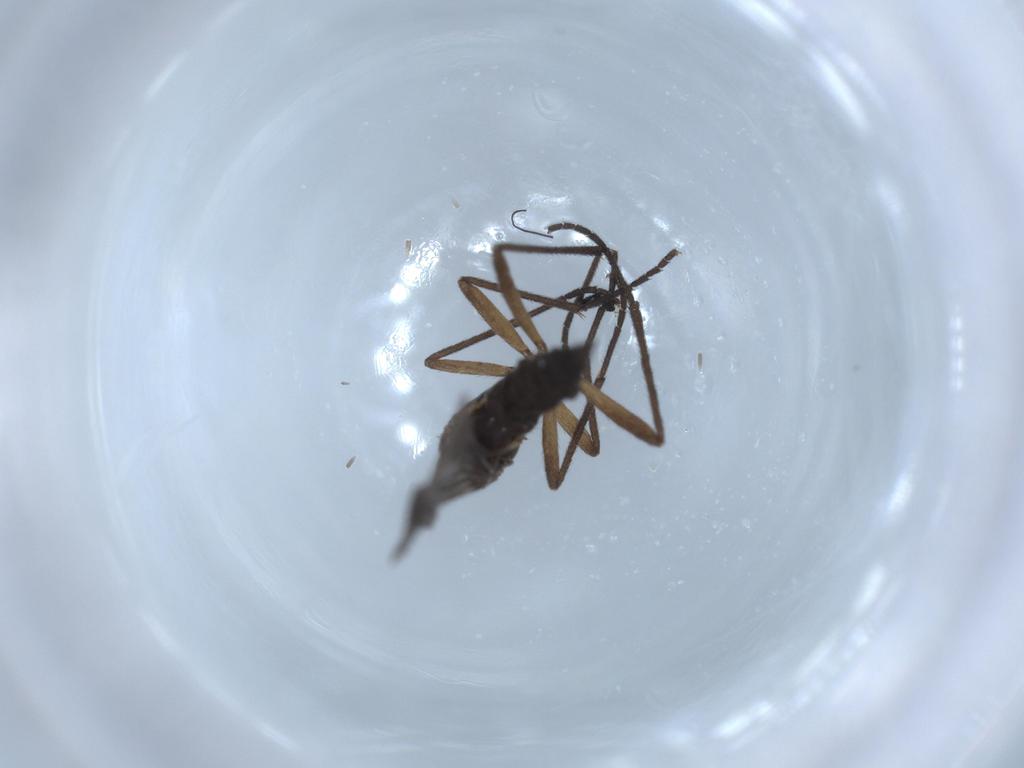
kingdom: Animalia
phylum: Arthropoda
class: Insecta
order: Diptera
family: Sciaridae
